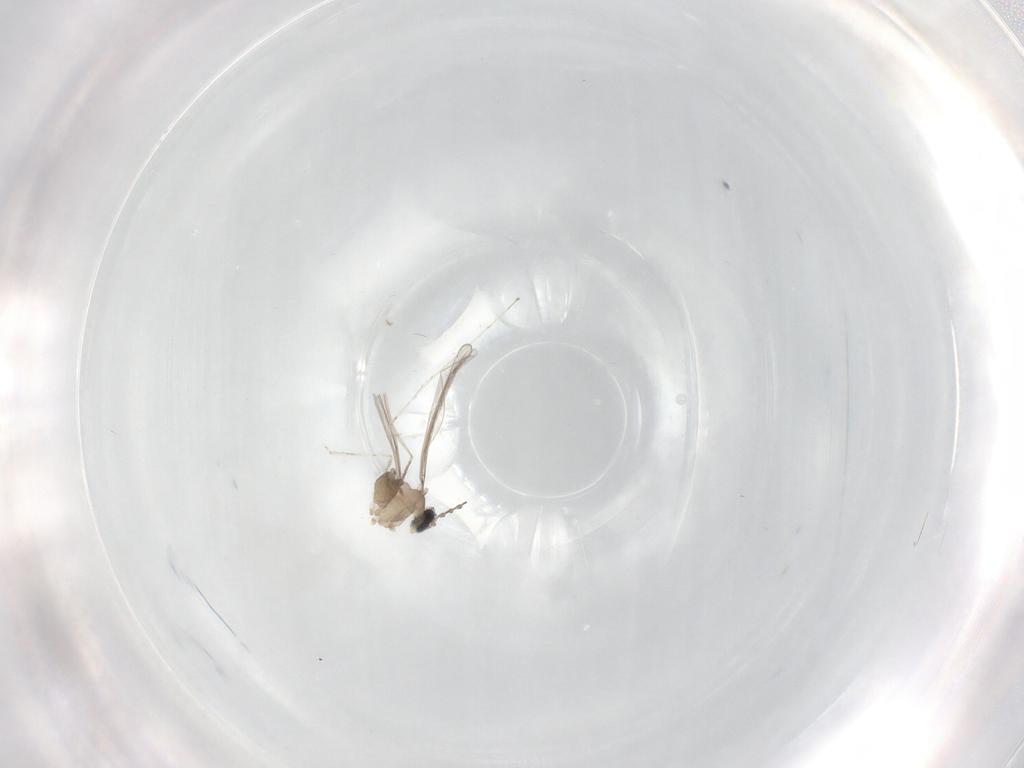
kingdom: Animalia
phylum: Arthropoda
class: Insecta
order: Diptera
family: Cecidomyiidae
